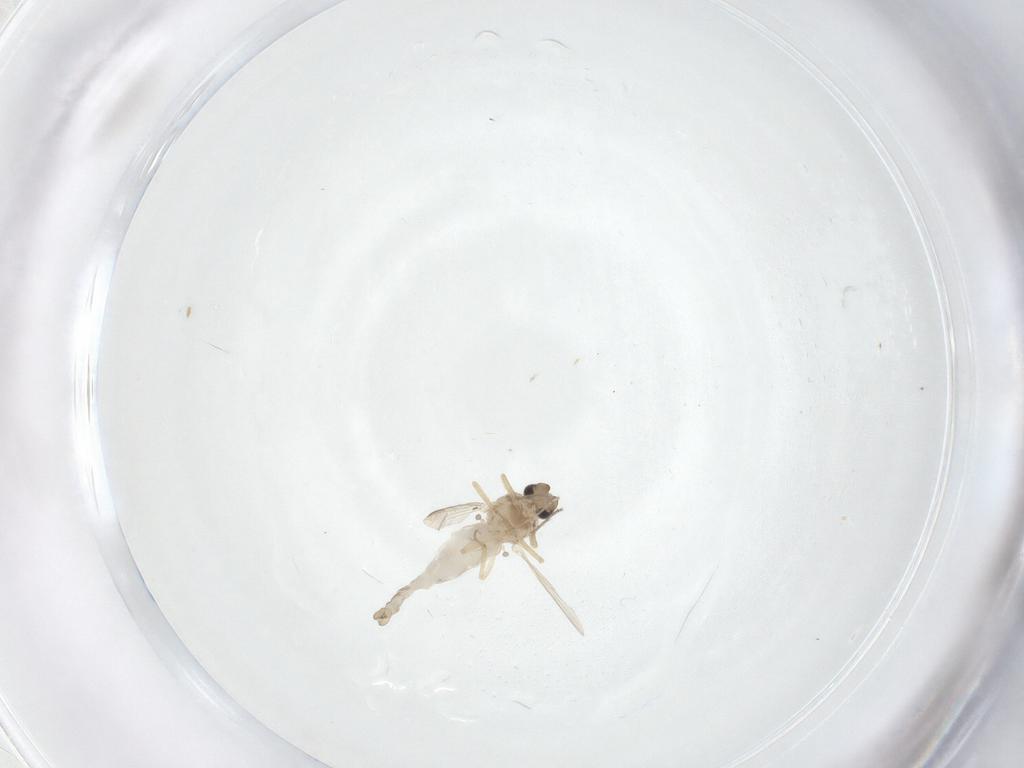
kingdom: Animalia
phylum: Arthropoda
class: Insecta
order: Diptera
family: Ceratopogonidae
